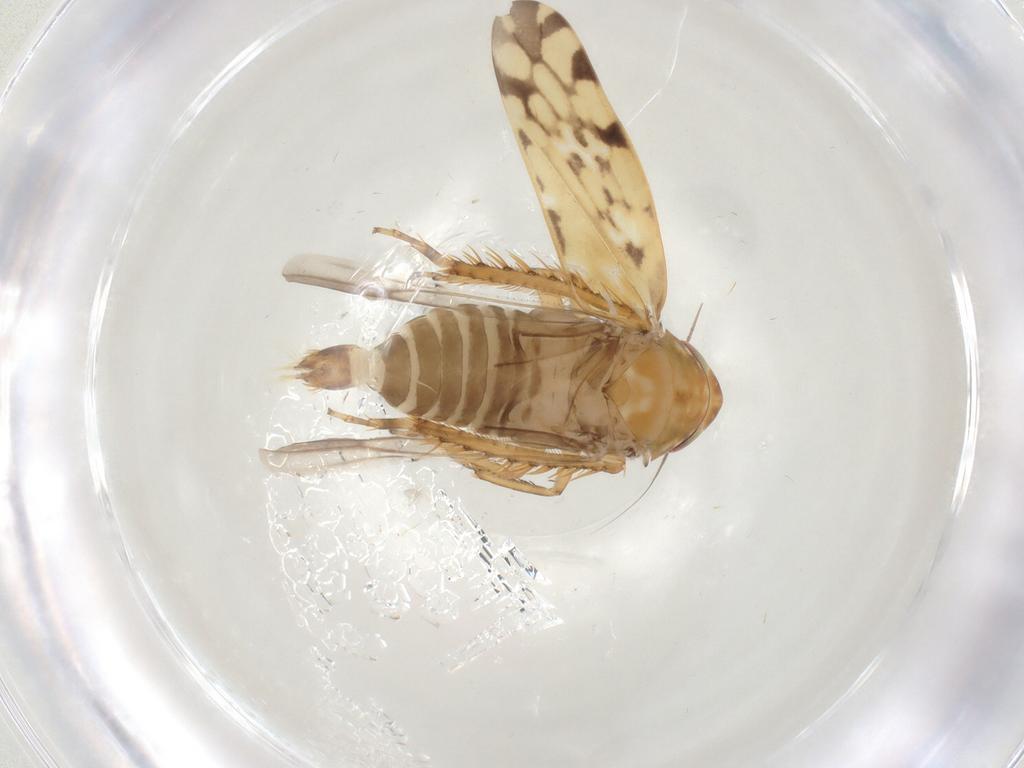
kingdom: Animalia
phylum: Arthropoda
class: Insecta
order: Hemiptera
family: Cicadellidae
